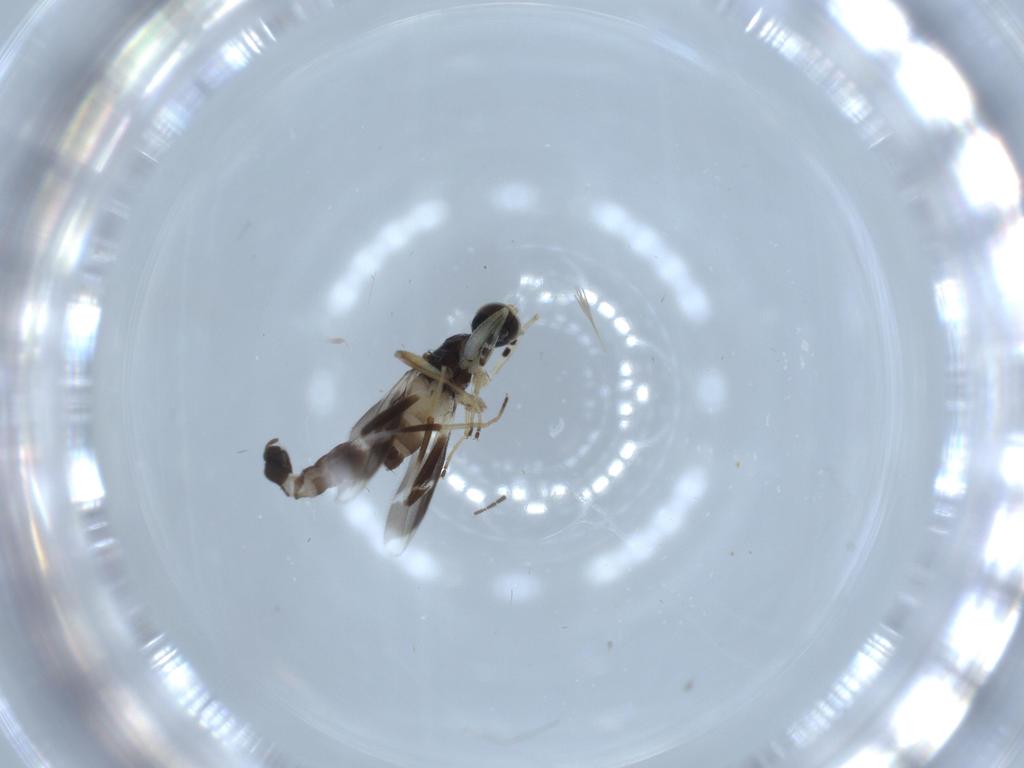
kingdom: Animalia
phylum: Arthropoda
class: Insecta
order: Diptera
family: Hybotidae
